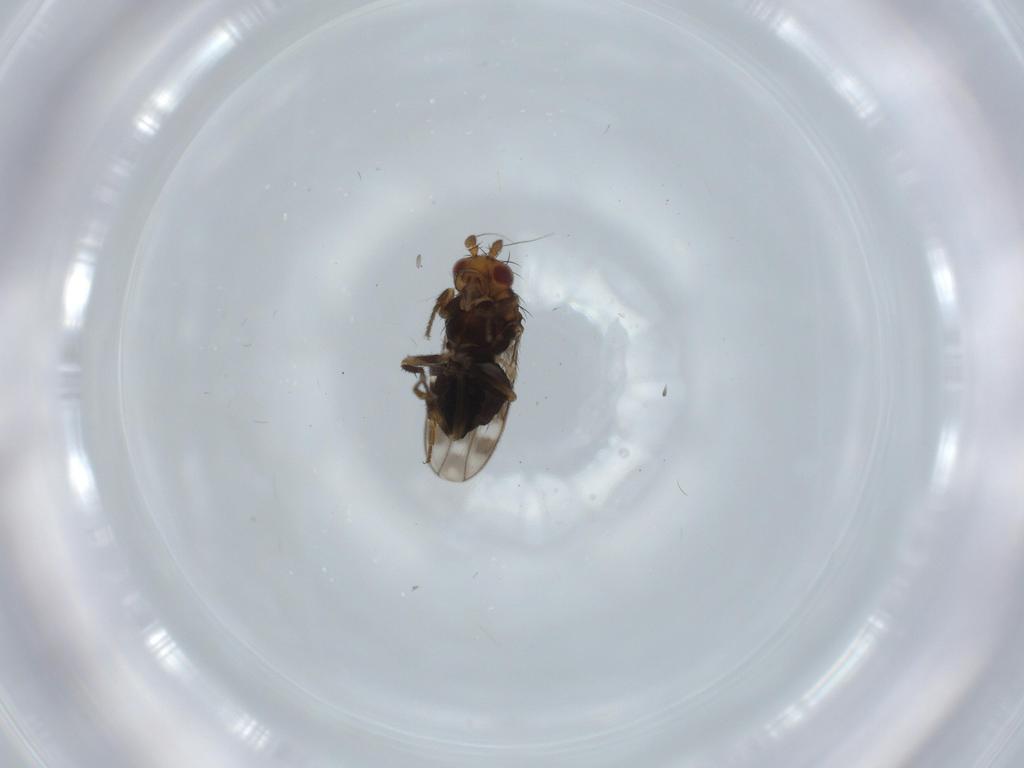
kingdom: Animalia
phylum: Arthropoda
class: Insecta
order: Diptera
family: Sphaeroceridae
